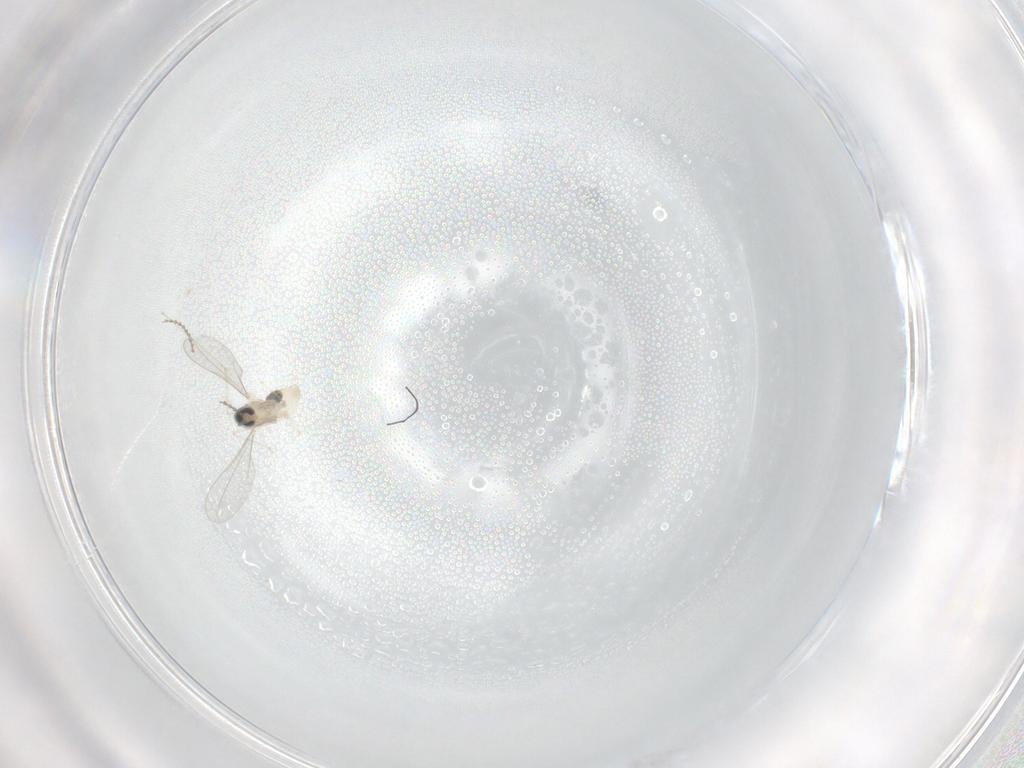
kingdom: Animalia
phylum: Arthropoda
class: Insecta
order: Diptera
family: Cecidomyiidae
